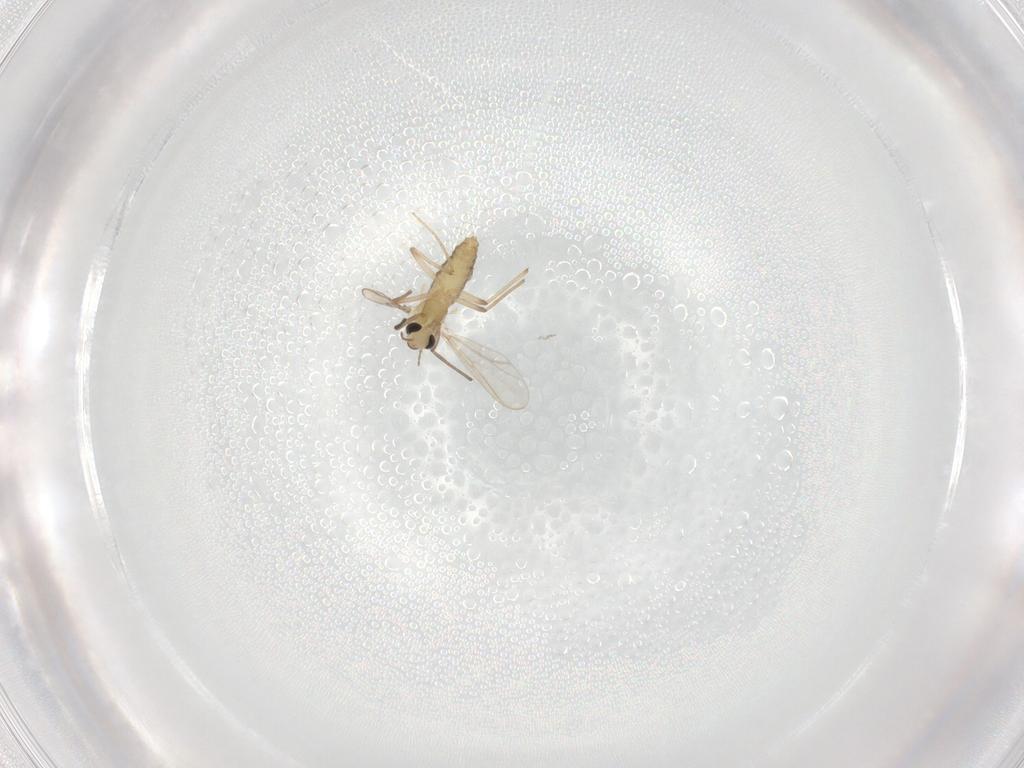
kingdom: Animalia
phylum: Arthropoda
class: Insecta
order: Diptera
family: Chironomidae
